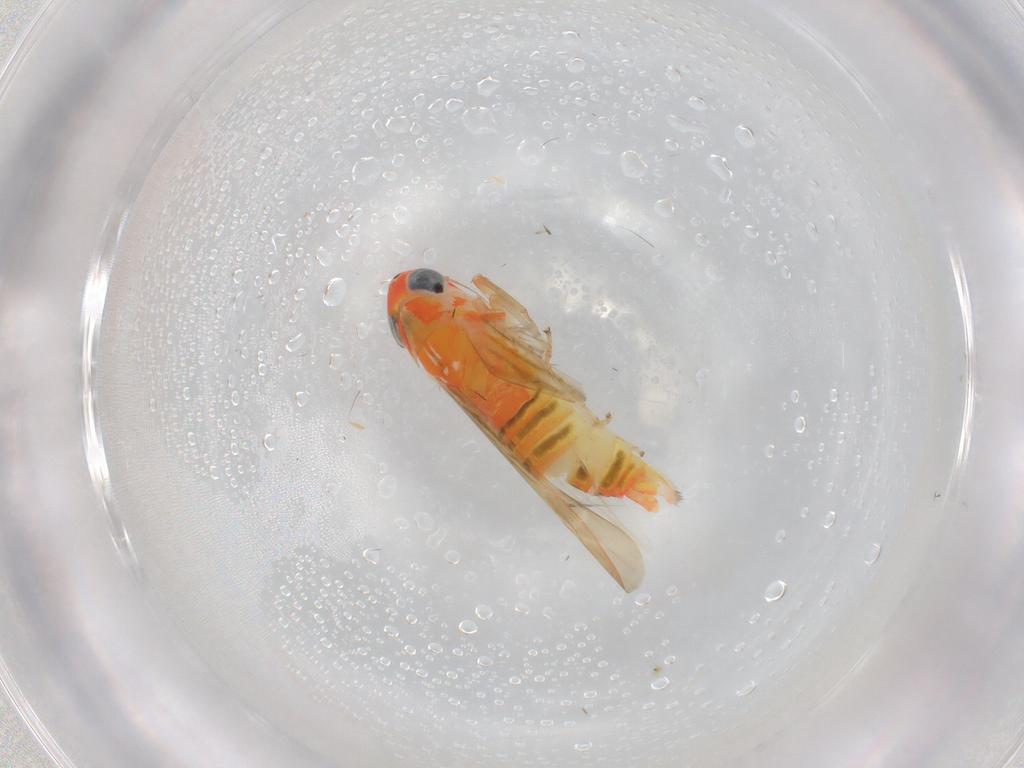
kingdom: Animalia
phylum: Arthropoda
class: Insecta
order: Hemiptera
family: Cicadellidae
